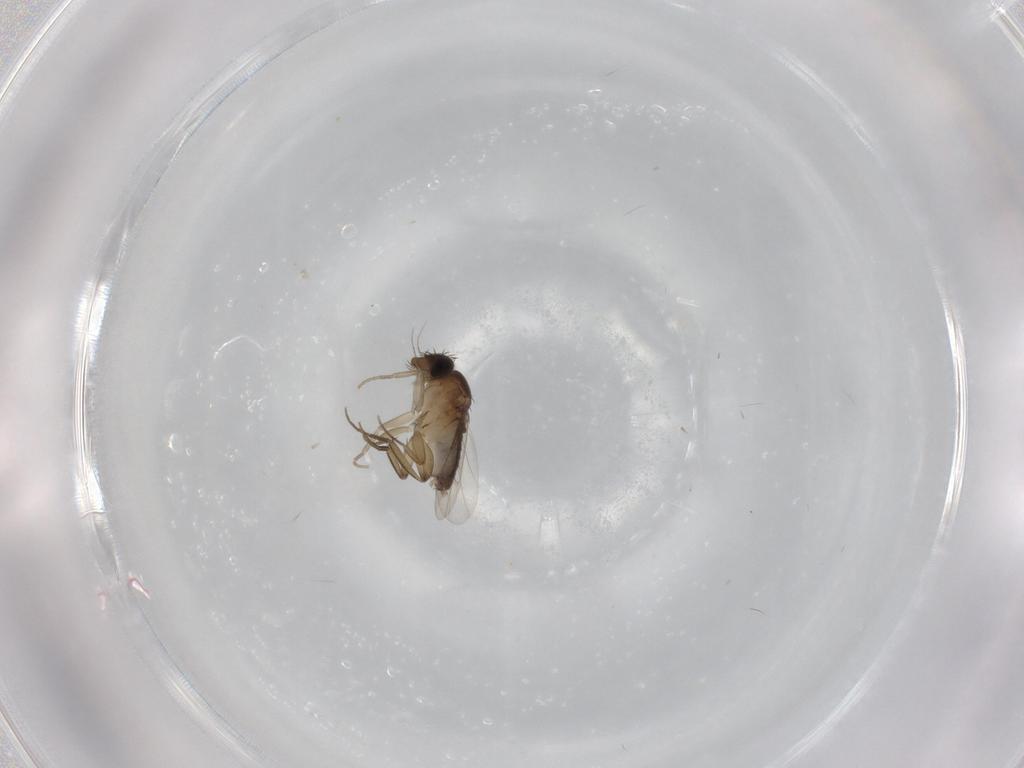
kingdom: Animalia
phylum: Arthropoda
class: Insecta
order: Diptera
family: Phoridae
